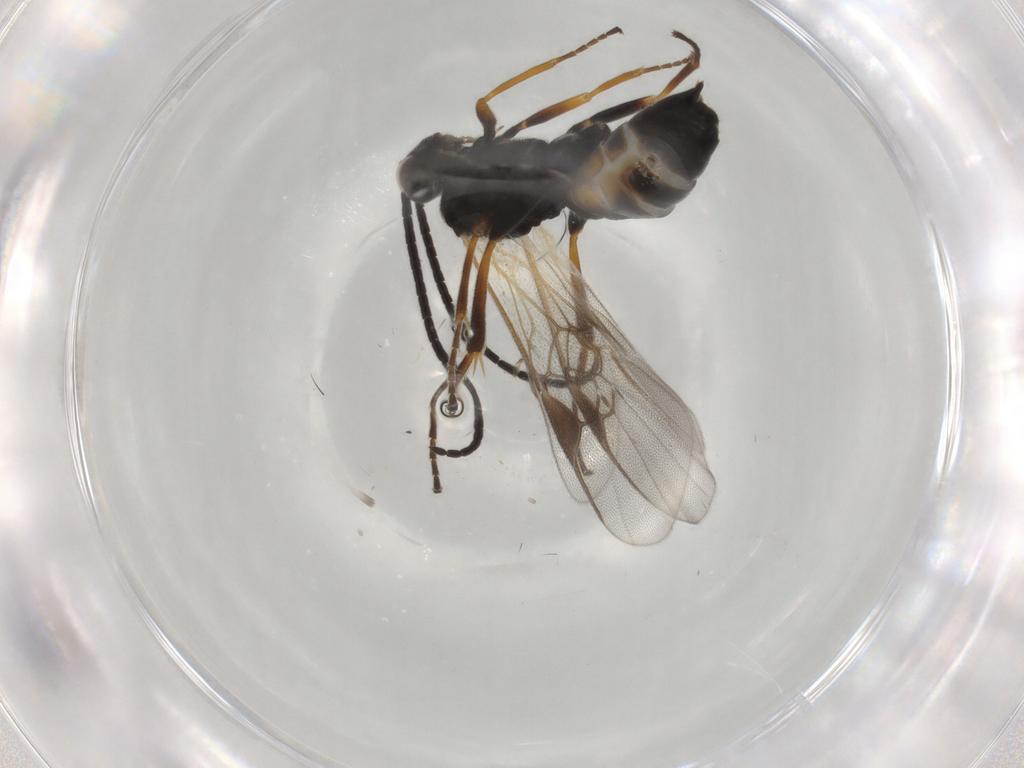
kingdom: Animalia
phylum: Arthropoda
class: Insecta
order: Hymenoptera
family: Braconidae
